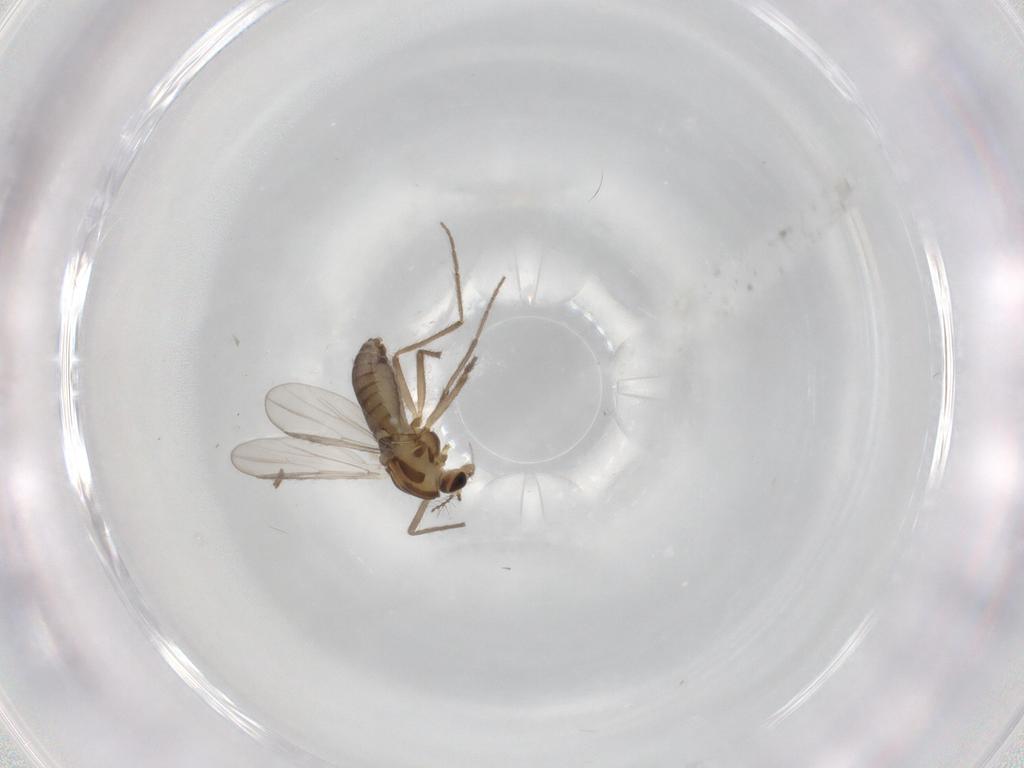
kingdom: Animalia
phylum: Arthropoda
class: Insecta
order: Diptera
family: Chironomidae
